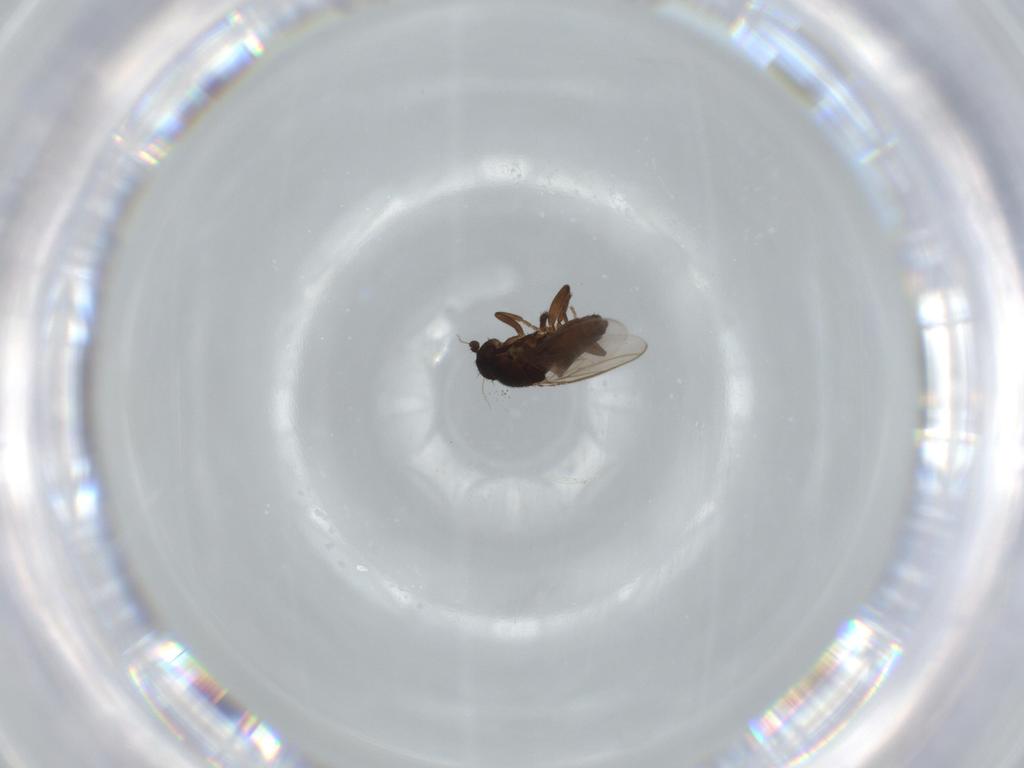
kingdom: Animalia
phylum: Arthropoda
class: Insecta
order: Diptera
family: Sphaeroceridae
